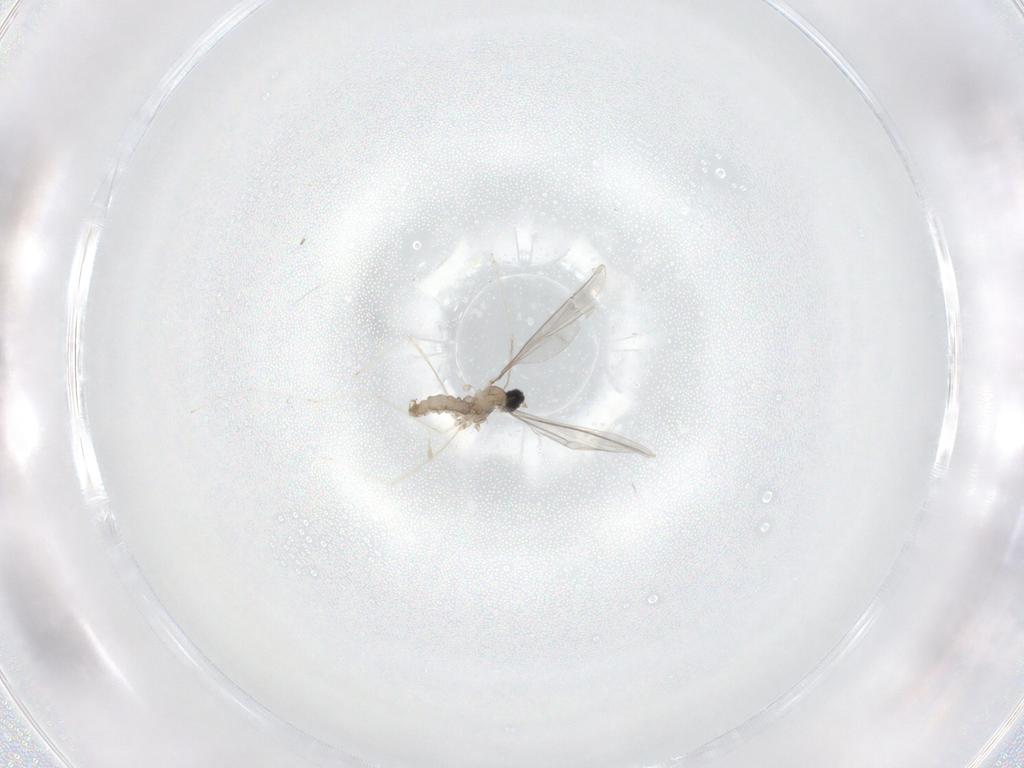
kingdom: Animalia
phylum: Arthropoda
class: Insecta
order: Diptera
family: Cecidomyiidae
